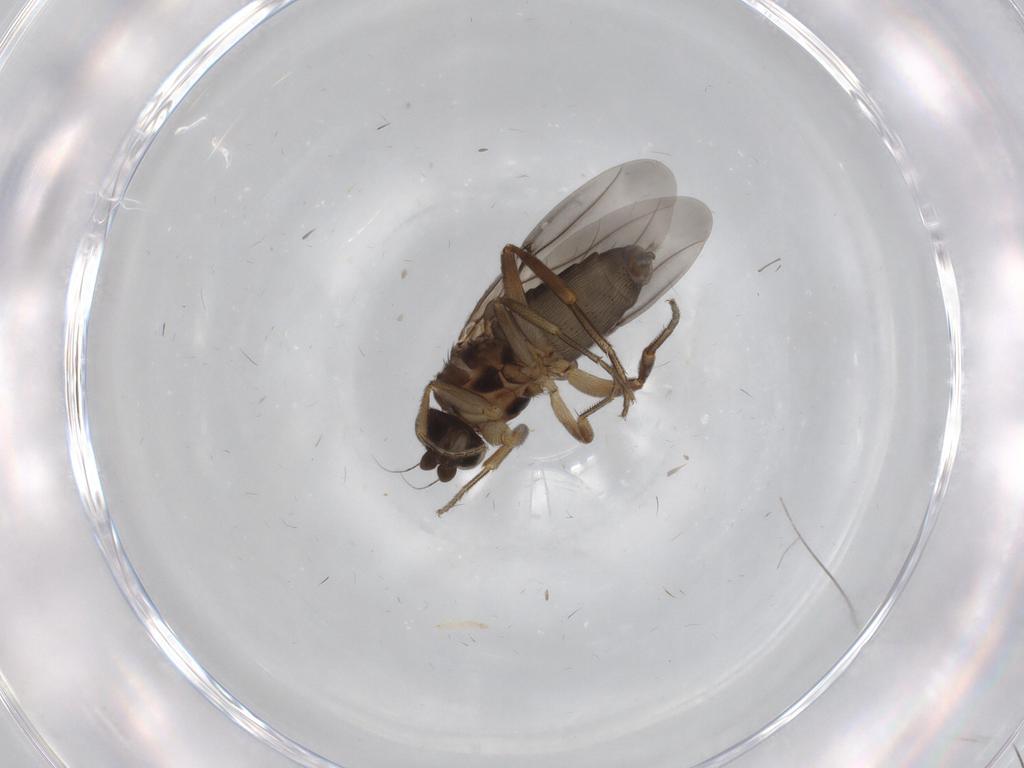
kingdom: Animalia
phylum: Arthropoda
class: Insecta
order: Diptera
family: Phoridae
